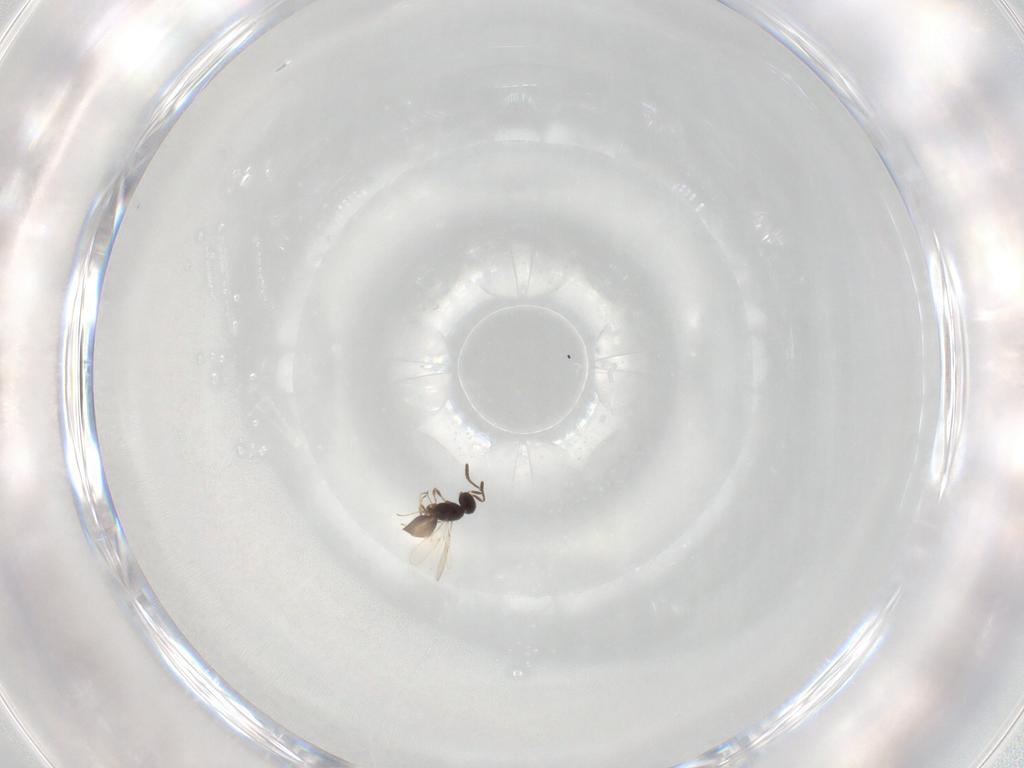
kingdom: Animalia
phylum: Arthropoda
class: Insecta
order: Hymenoptera
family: Scelionidae
